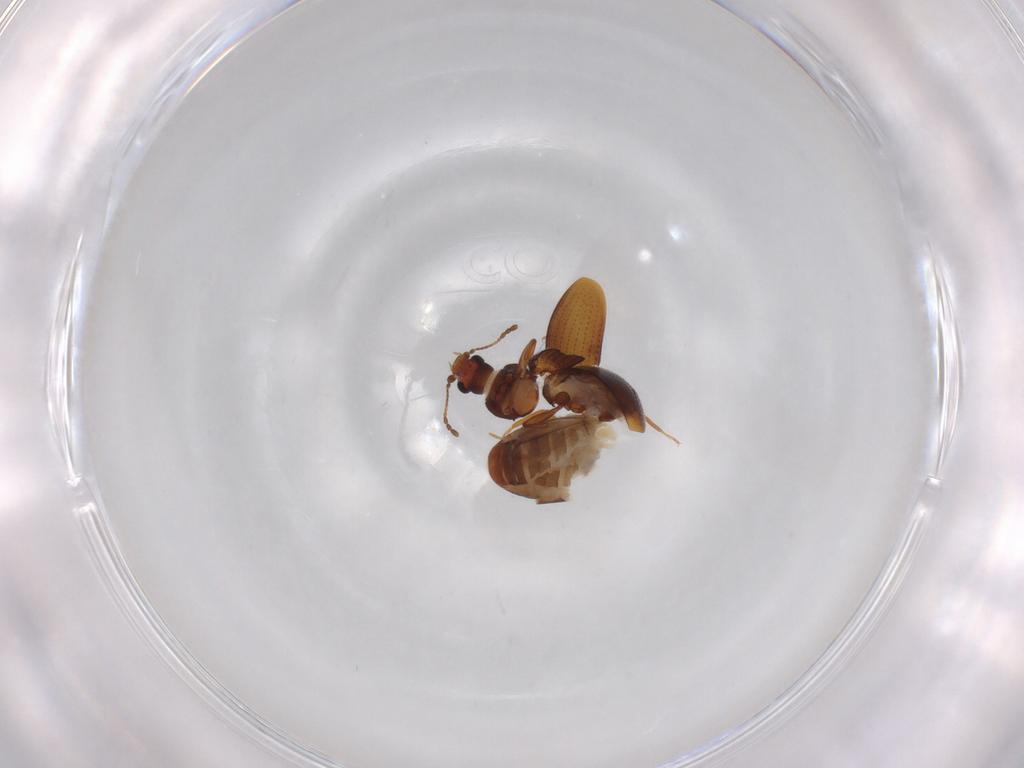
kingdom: Animalia
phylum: Arthropoda
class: Insecta
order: Coleoptera
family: Latridiidae
